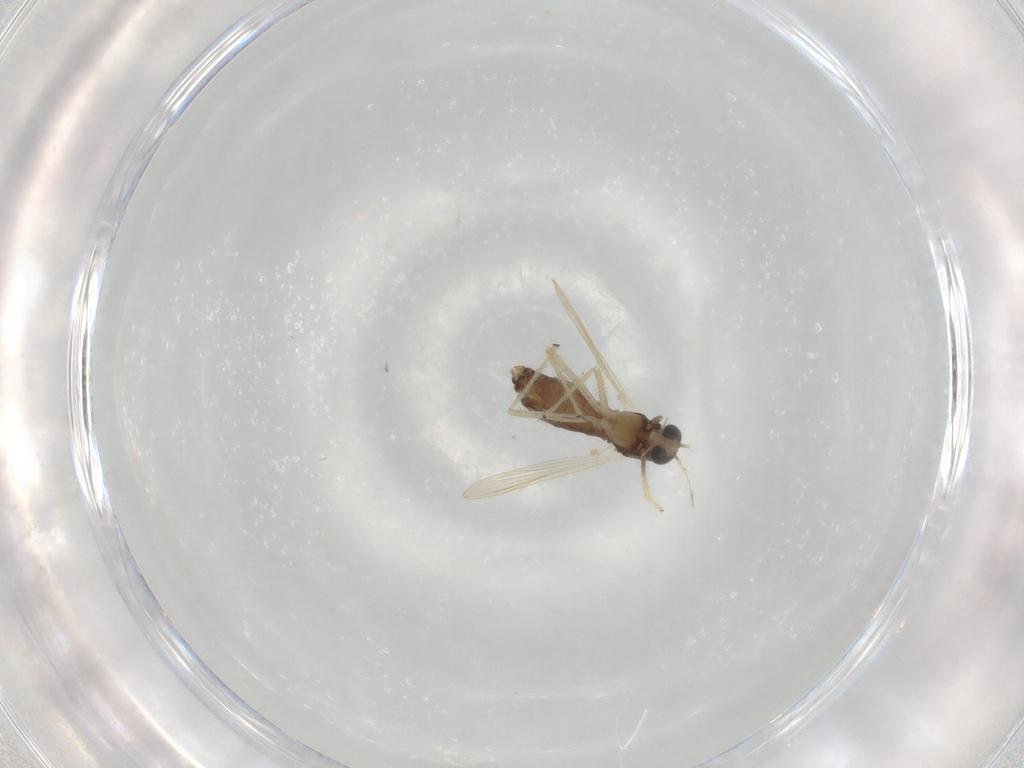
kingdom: Animalia
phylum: Arthropoda
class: Insecta
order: Diptera
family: Chironomidae
